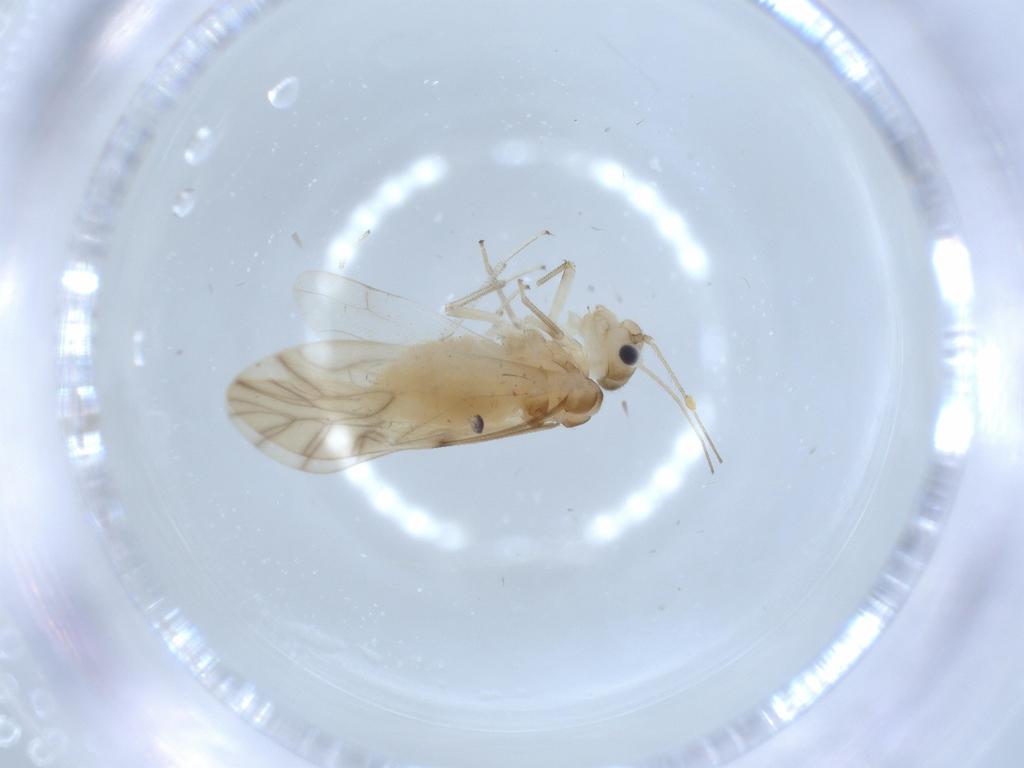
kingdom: Animalia
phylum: Arthropoda
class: Insecta
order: Psocodea
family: Caeciliusidae
